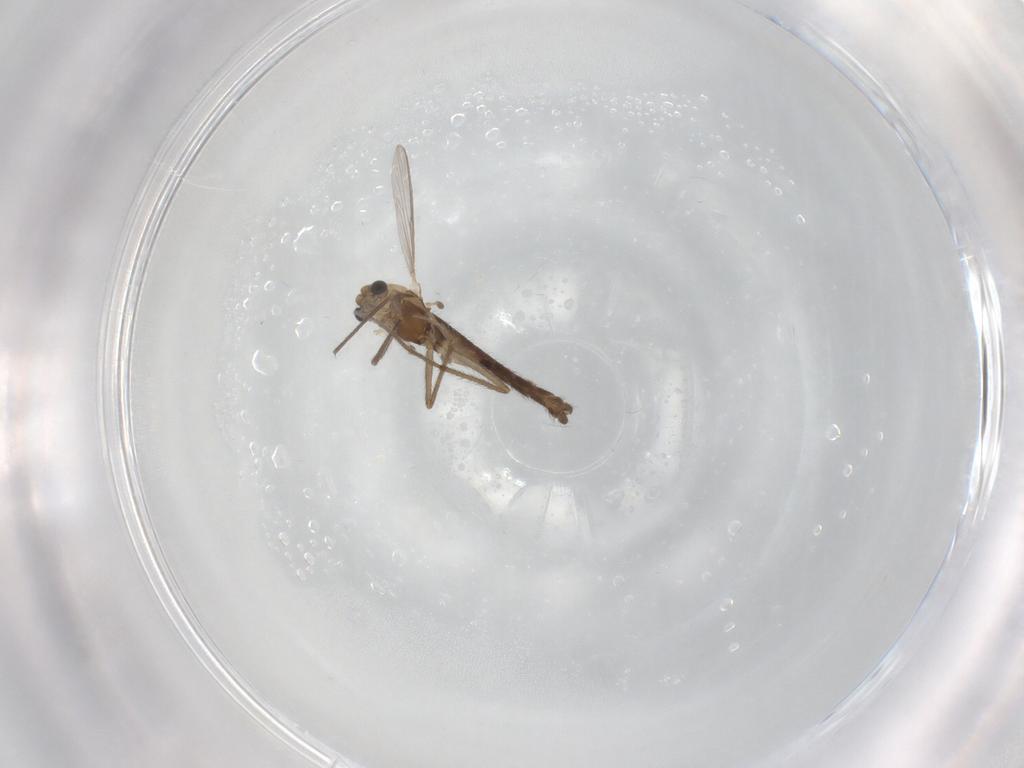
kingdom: Animalia
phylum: Arthropoda
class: Insecta
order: Diptera
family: Chironomidae
